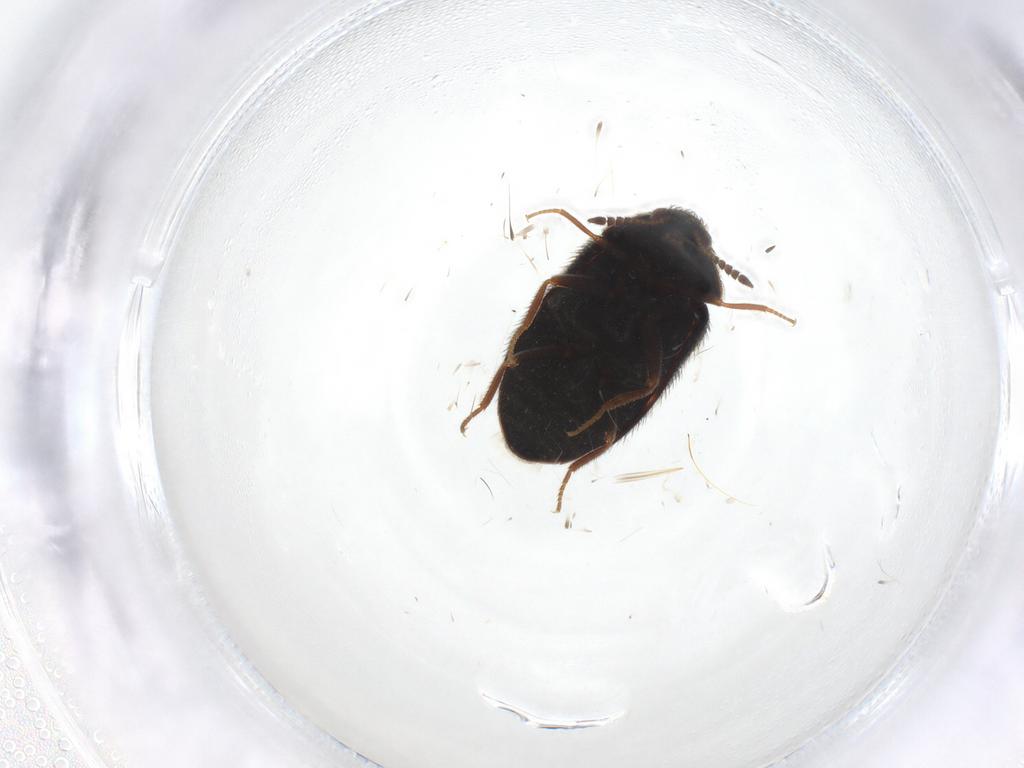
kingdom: Animalia
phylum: Arthropoda
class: Insecta
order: Coleoptera
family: Dermestidae
